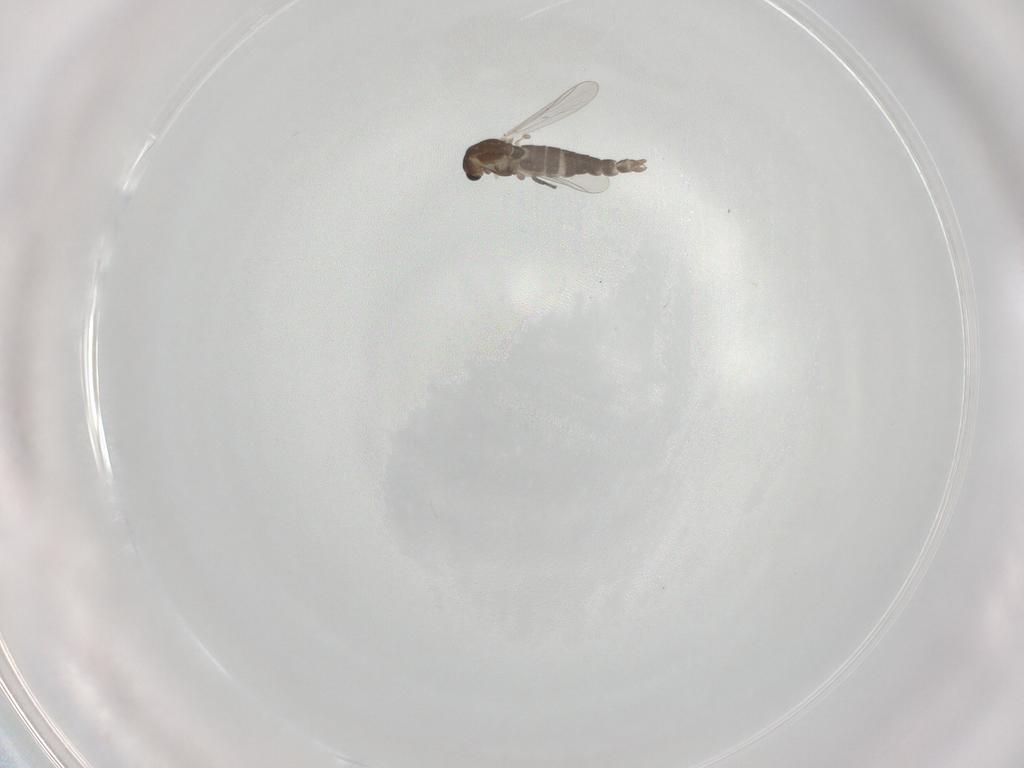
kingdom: Animalia
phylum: Arthropoda
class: Insecta
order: Diptera
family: Chironomidae
